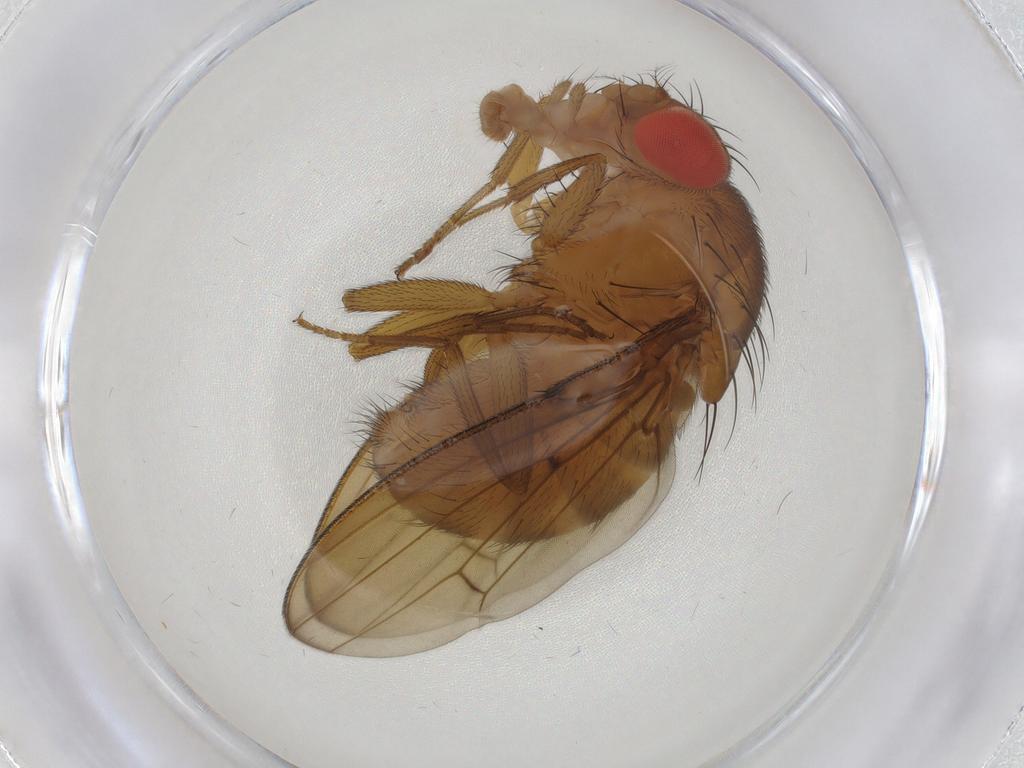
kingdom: Animalia
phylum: Arthropoda
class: Insecta
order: Diptera
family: Drosophilidae
